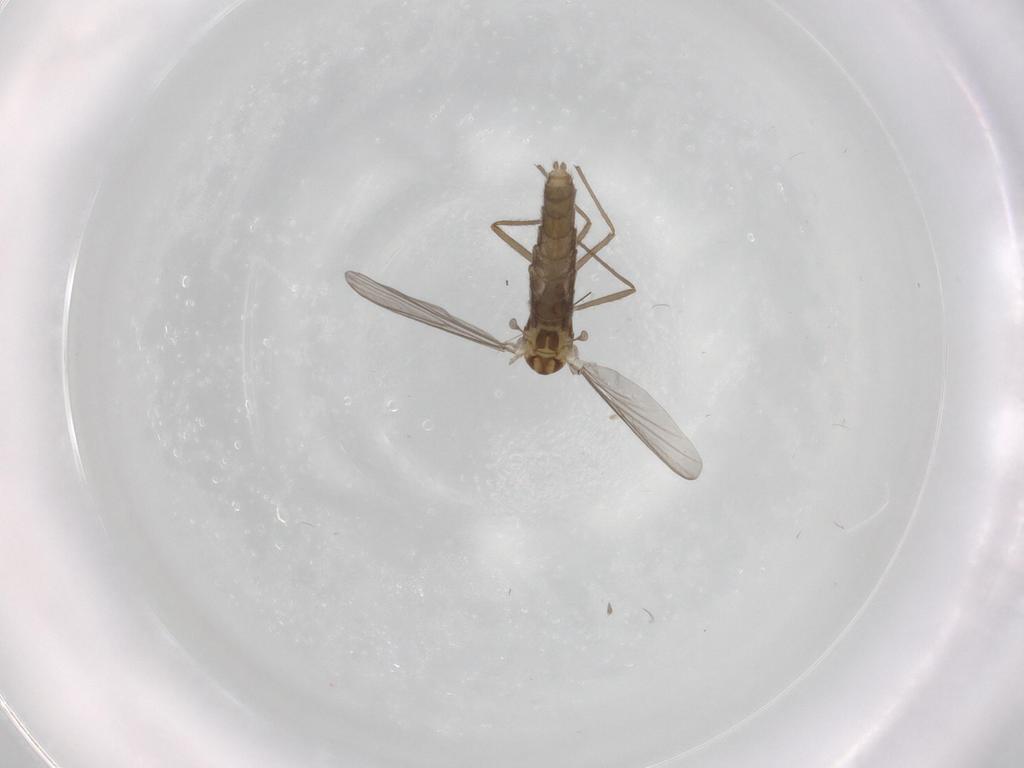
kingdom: Animalia
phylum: Arthropoda
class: Insecta
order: Diptera
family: Chironomidae
